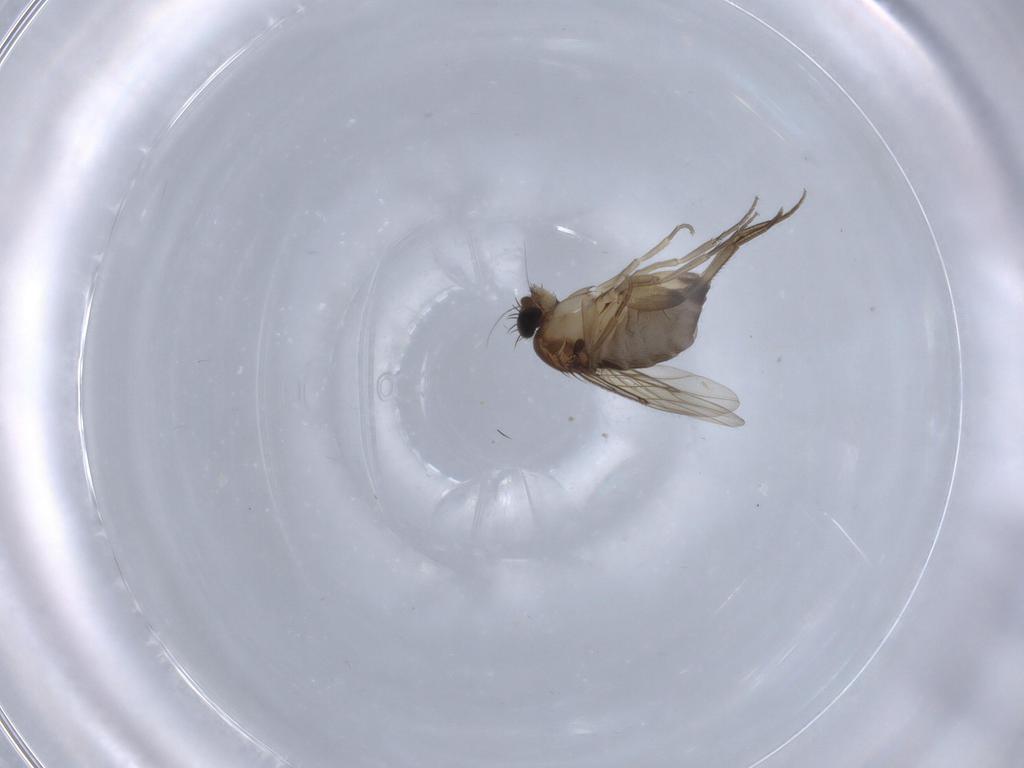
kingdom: Animalia
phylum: Arthropoda
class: Insecta
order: Diptera
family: Phoridae
